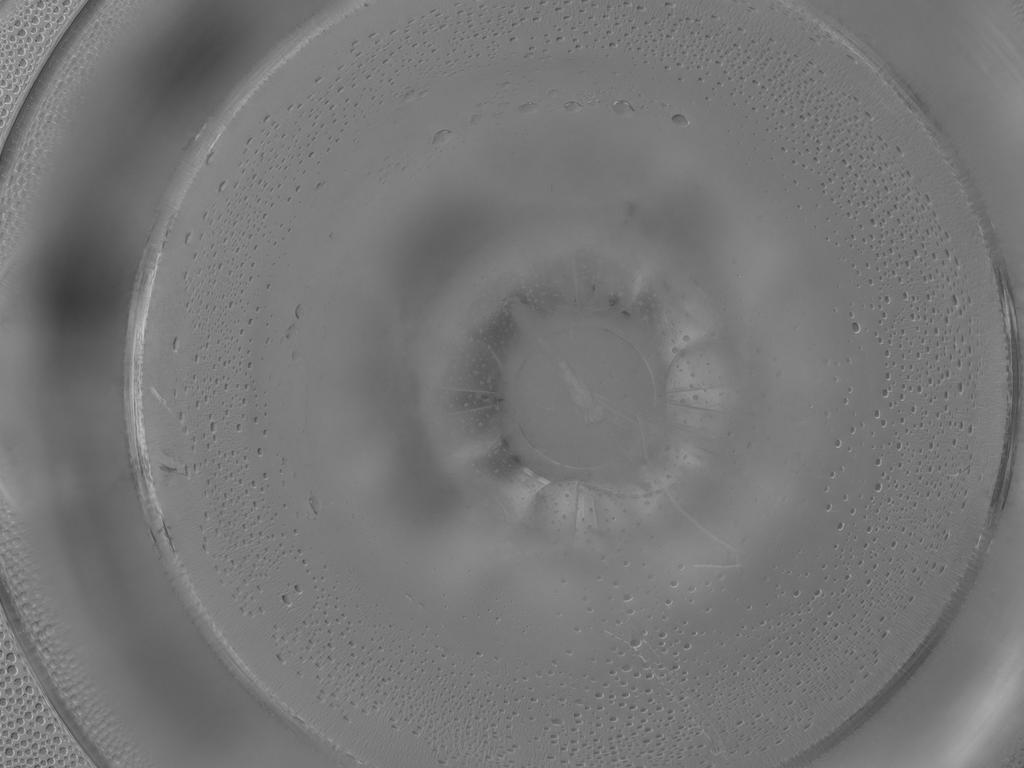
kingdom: Animalia
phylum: Arthropoda
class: Insecta
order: Diptera
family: Cecidomyiidae
